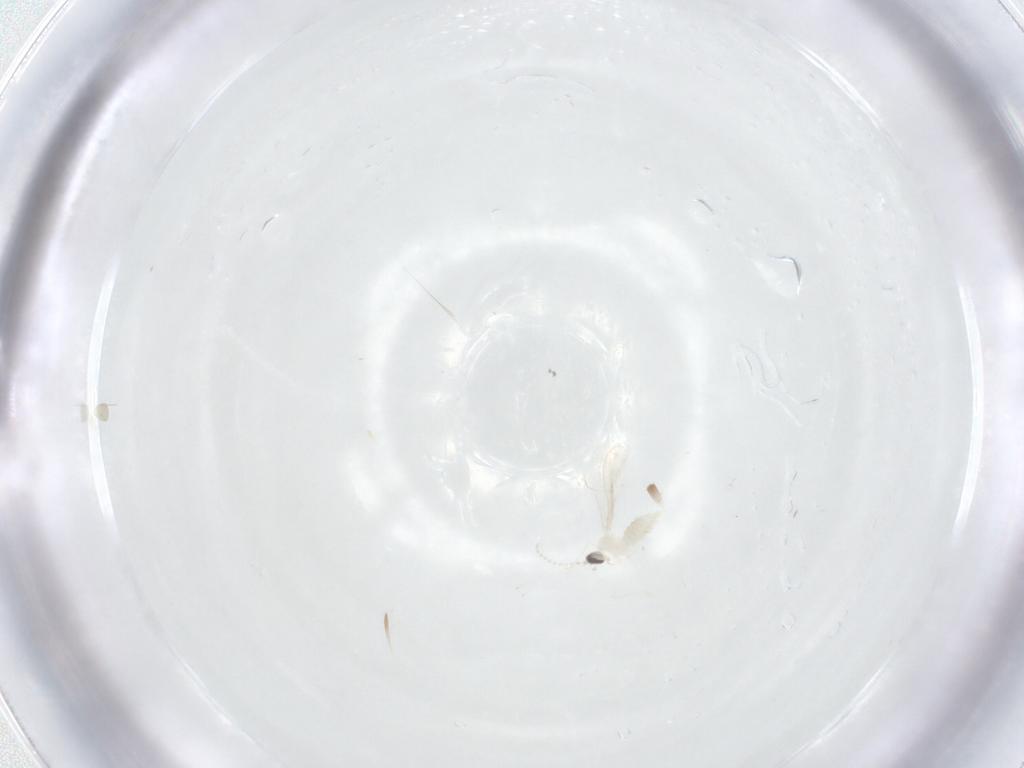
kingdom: Animalia
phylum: Arthropoda
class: Insecta
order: Diptera
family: Cecidomyiidae
